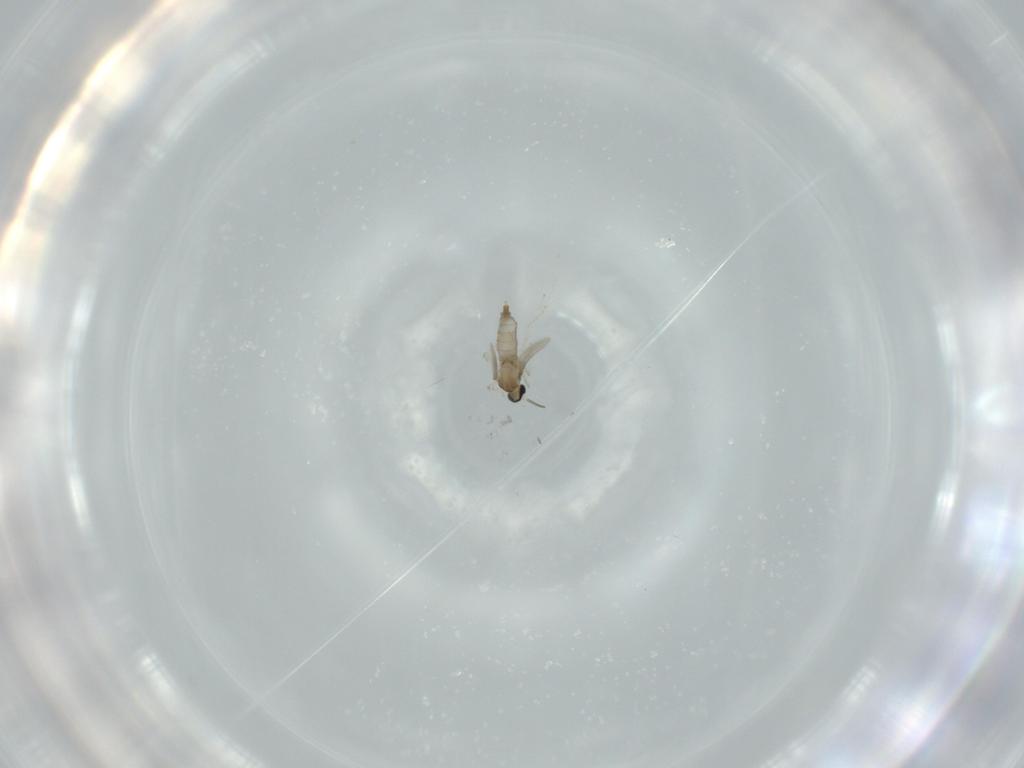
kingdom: Animalia
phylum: Arthropoda
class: Insecta
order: Diptera
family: Cecidomyiidae
